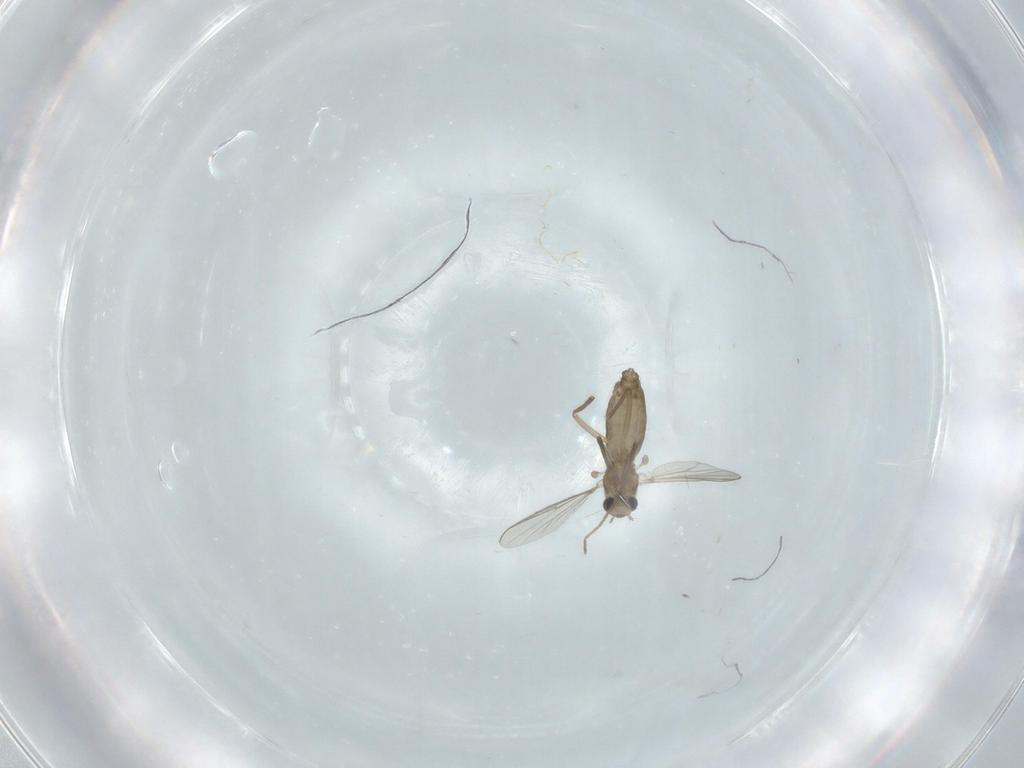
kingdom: Animalia
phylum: Arthropoda
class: Insecta
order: Diptera
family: Chironomidae
